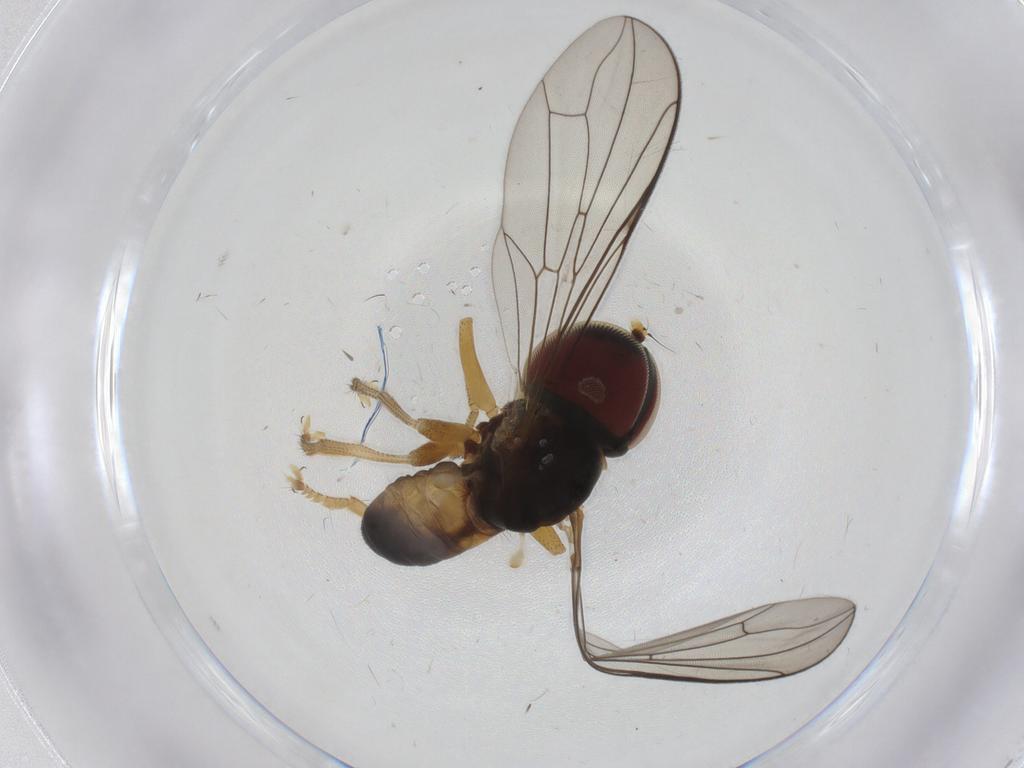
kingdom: Animalia
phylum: Arthropoda
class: Insecta
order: Diptera
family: Pipunculidae
